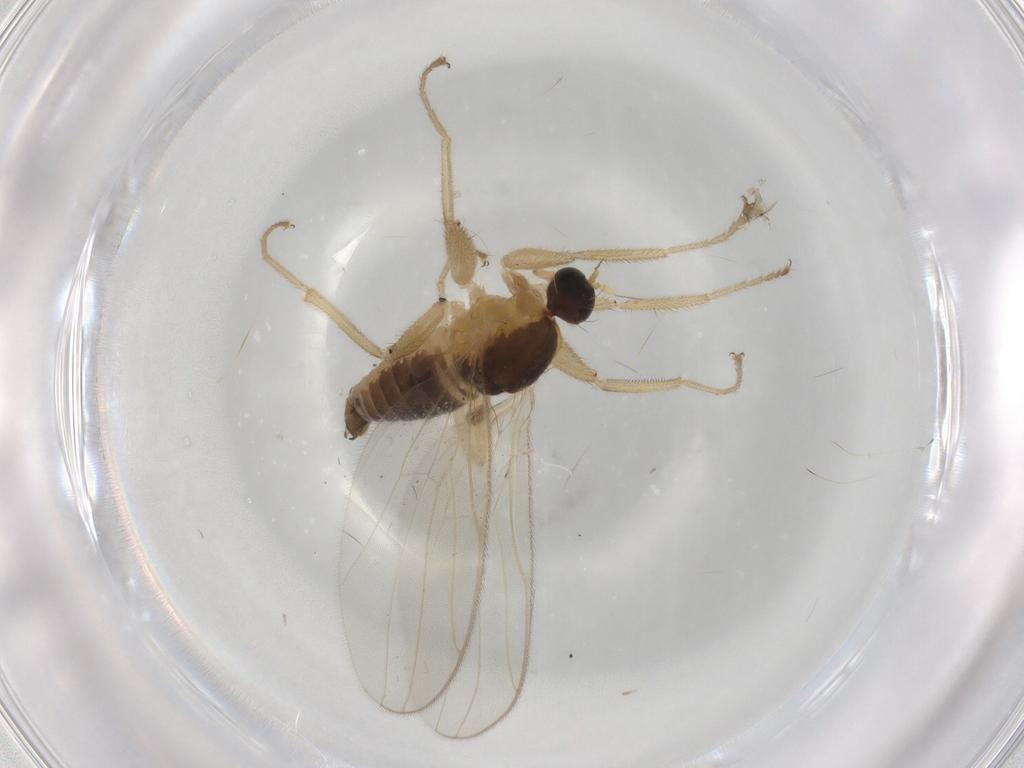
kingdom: Animalia
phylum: Arthropoda
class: Insecta
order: Diptera
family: Hybotidae
